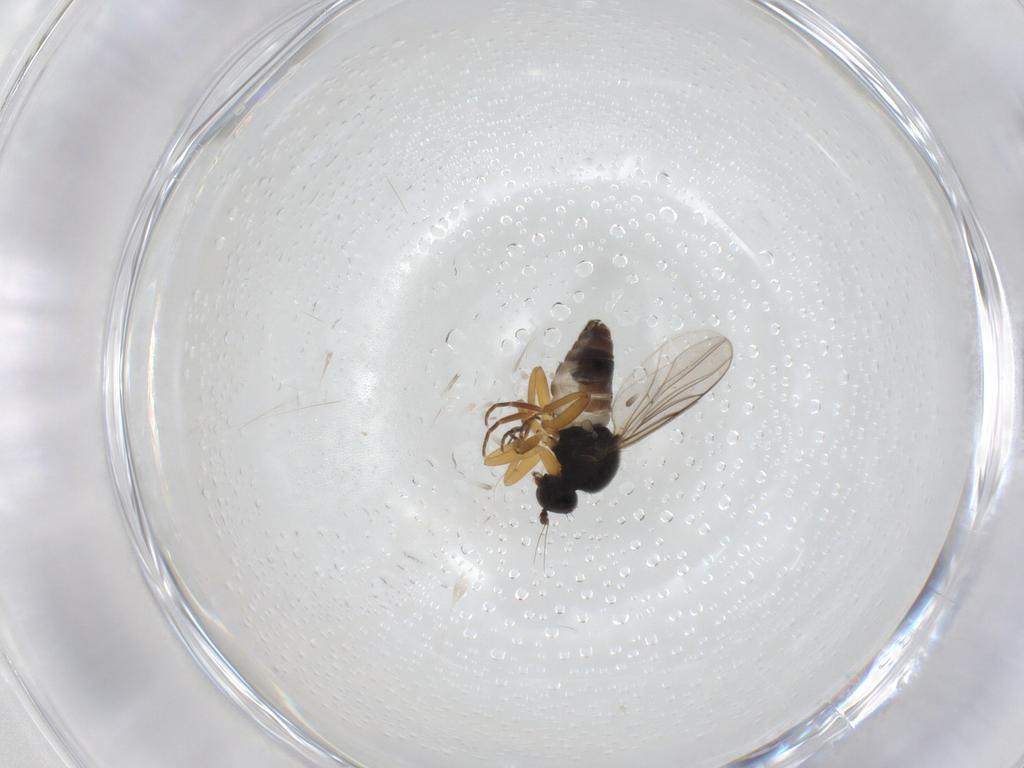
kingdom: Animalia
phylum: Arthropoda
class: Insecta
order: Diptera
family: Hybotidae
